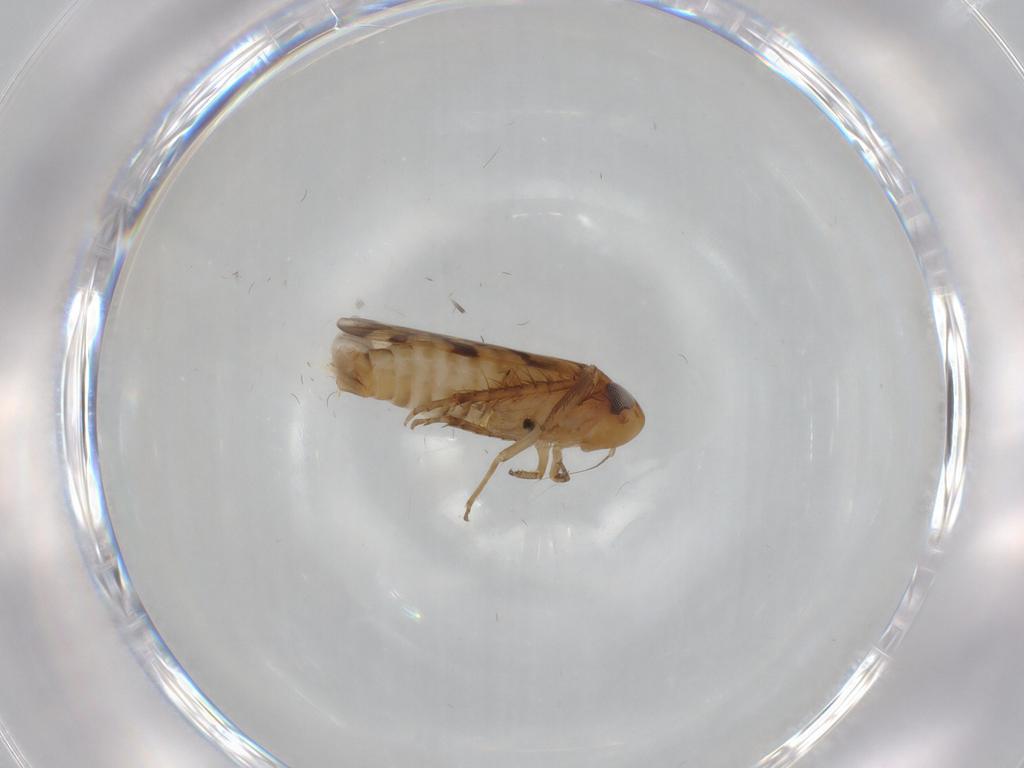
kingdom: Animalia
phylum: Arthropoda
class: Insecta
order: Hemiptera
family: Cicadellidae
